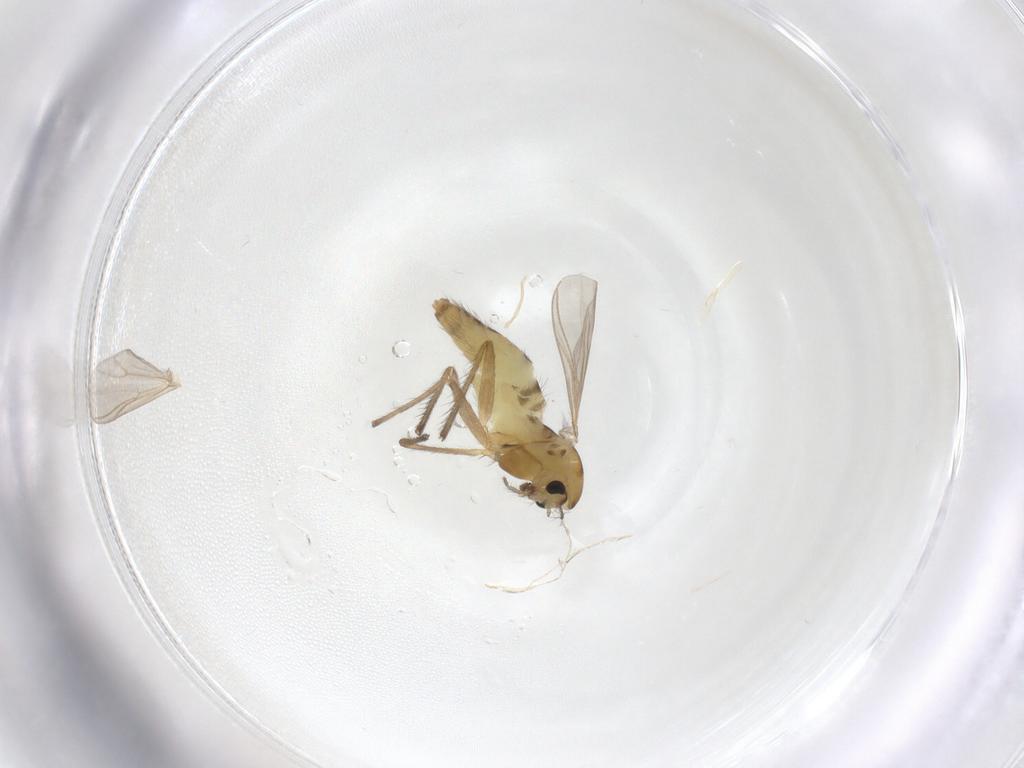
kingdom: Animalia
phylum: Arthropoda
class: Insecta
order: Diptera
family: Chironomidae
